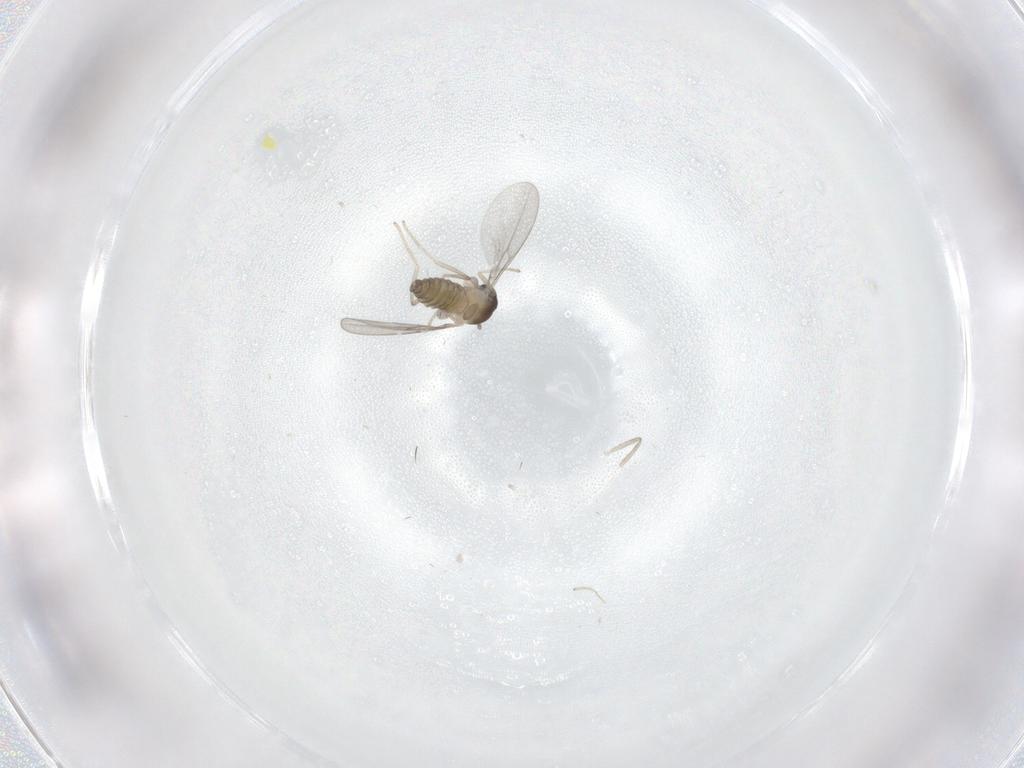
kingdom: Animalia
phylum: Arthropoda
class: Insecta
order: Diptera
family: Cecidomyiidae
